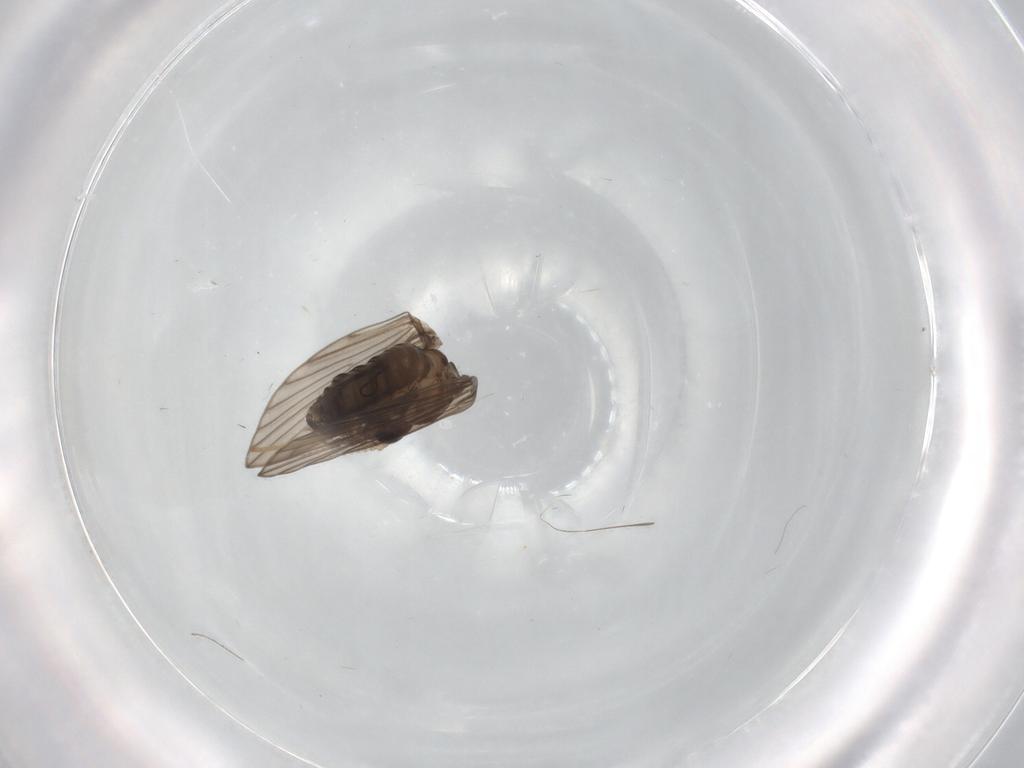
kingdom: Animalia
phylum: Arthropoda
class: Insecta
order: Diptera
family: Psychodidae
